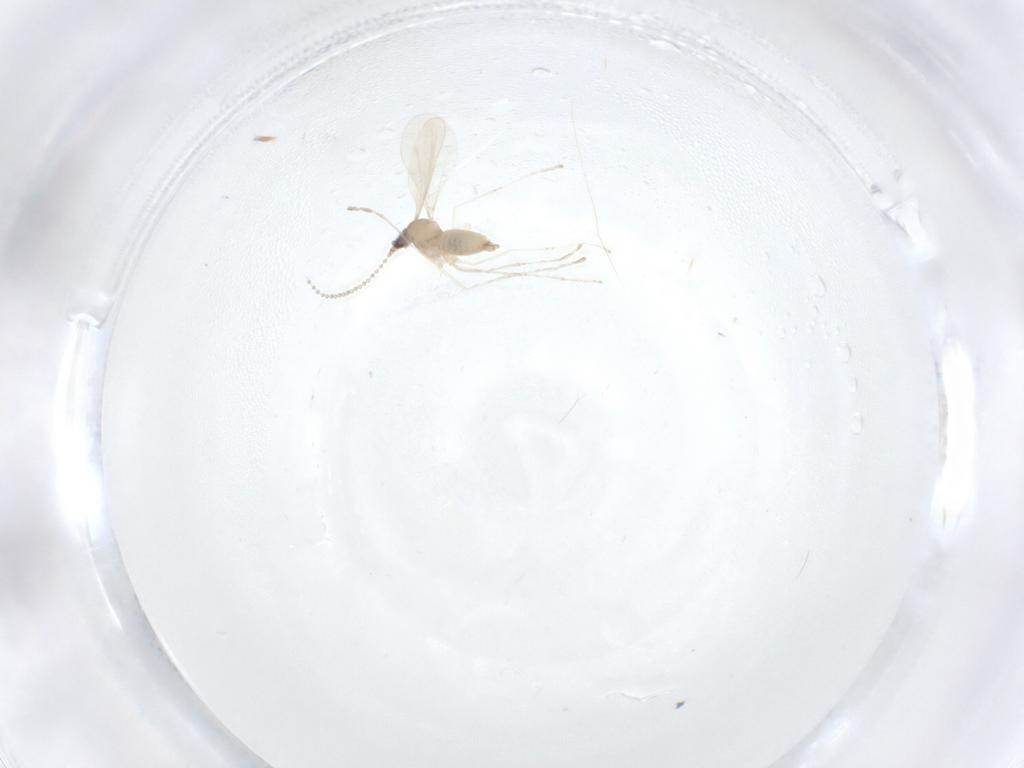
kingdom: Animalia
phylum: Arthropoda
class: Insecta
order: Diptera
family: Cecidomyiidae
